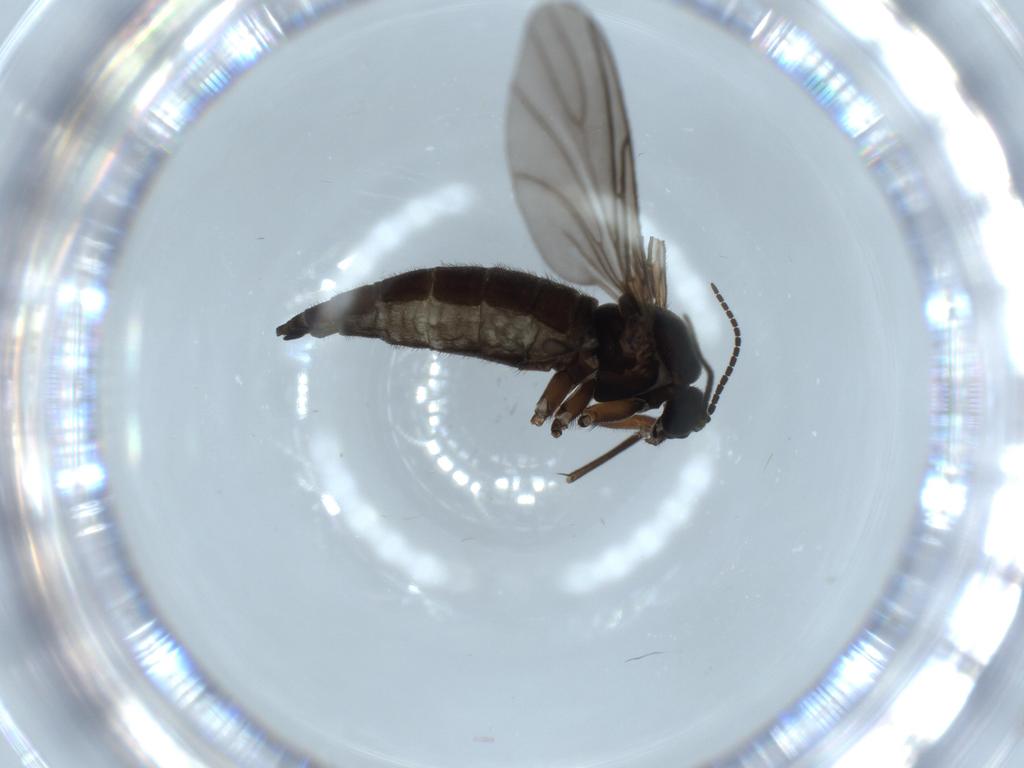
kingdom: Animalia
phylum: Arthropoda
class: Insecta
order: Diptera
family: Sciaridae
